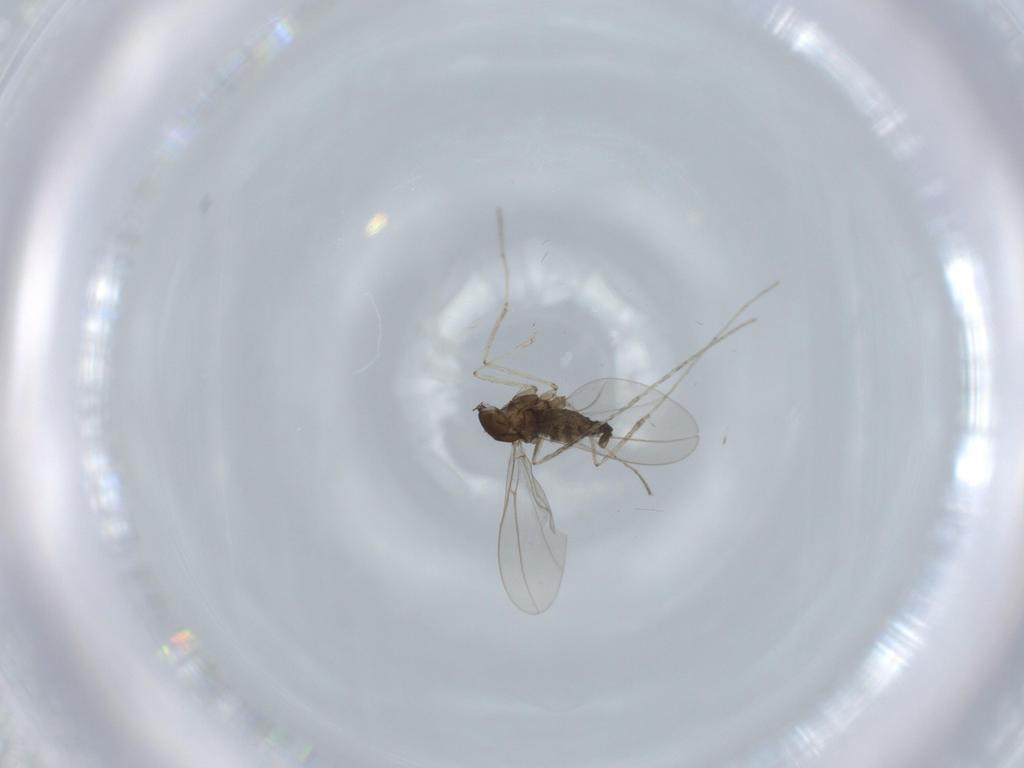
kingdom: Animalia
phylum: Arthropoda
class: Insecta
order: Diptera
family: Cecidomyiidae
